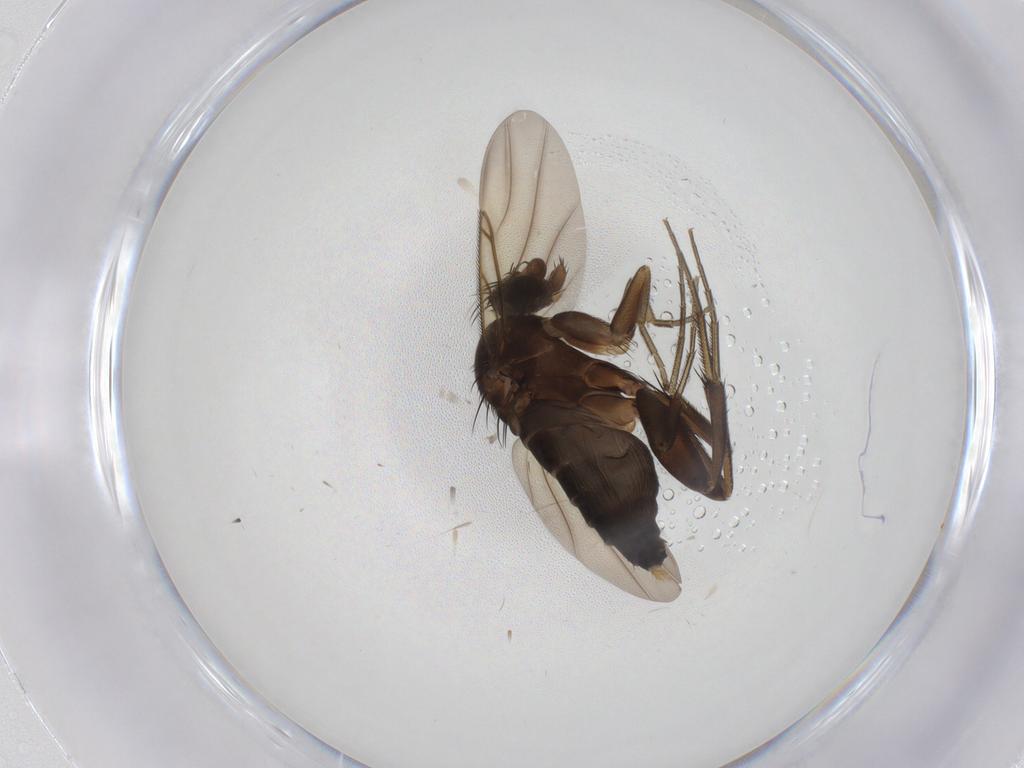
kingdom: Animalia
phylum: Arthropoda
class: Insecta
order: Diptera
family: Phoridae
